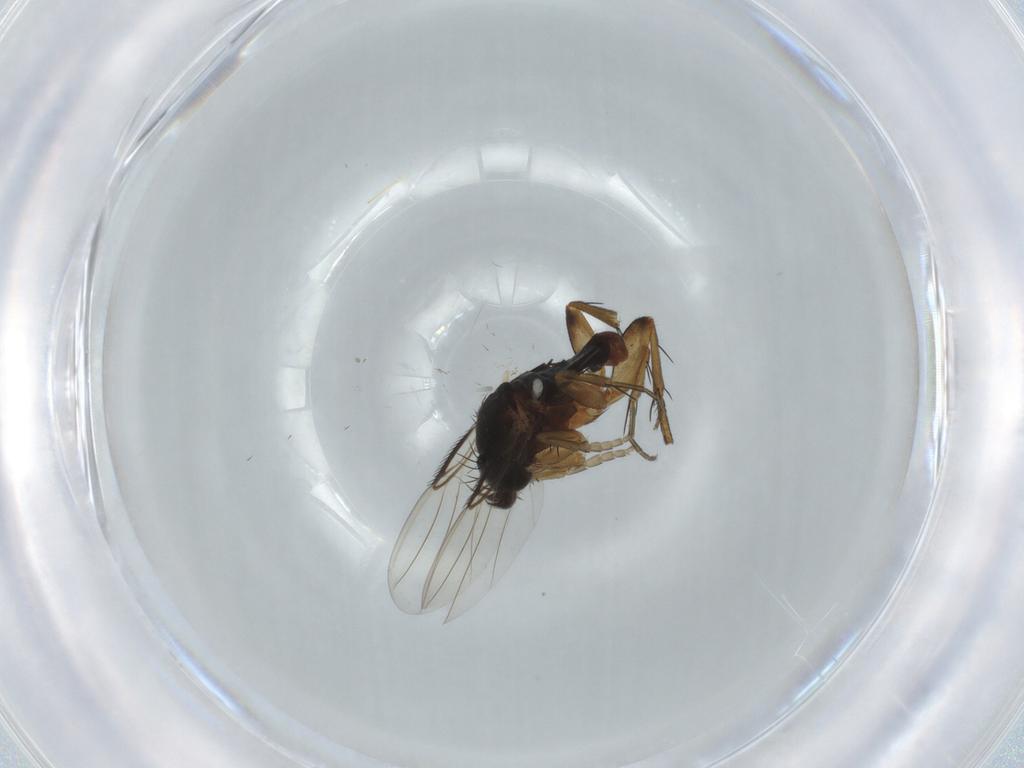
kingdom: Animalia
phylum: Arthropoda
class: Insecta
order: Diptera
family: Phoridae
